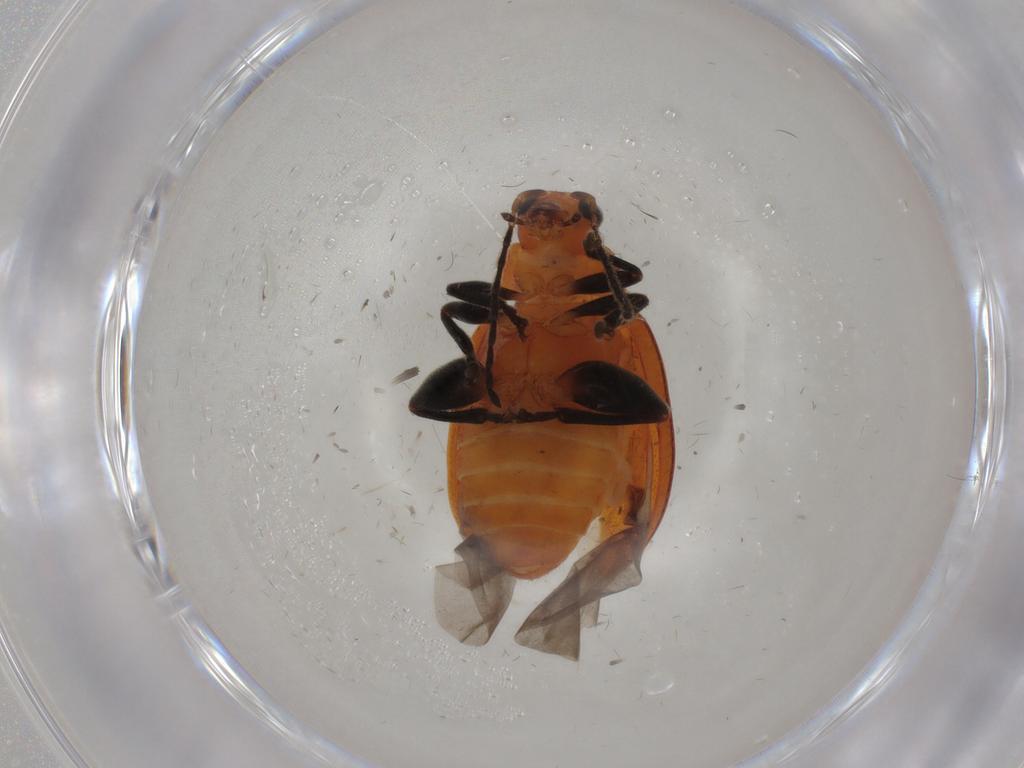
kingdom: Animalia
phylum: Arthropoda
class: Insecta
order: Coleoptera
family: Chrysomelidae
